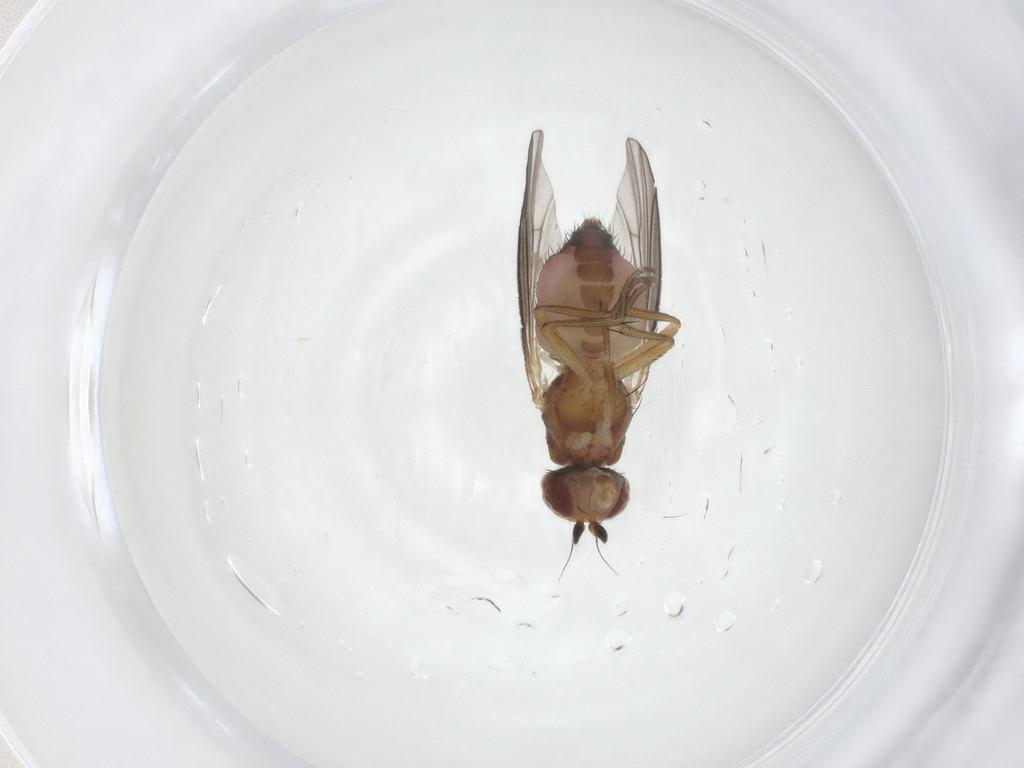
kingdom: Animalia
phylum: Arthropoda
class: Insecta
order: Diptera
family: Heleomyzidae
